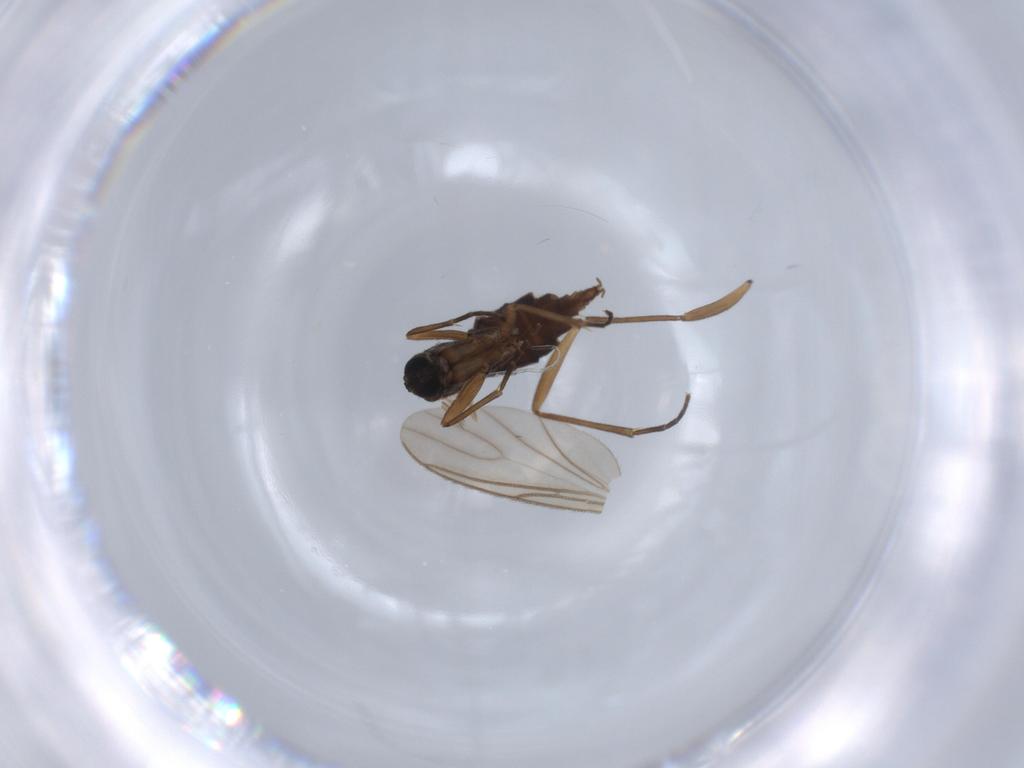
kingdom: Animalia
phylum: Arthropoda
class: Insecta
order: Diptera
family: Sciaridae
